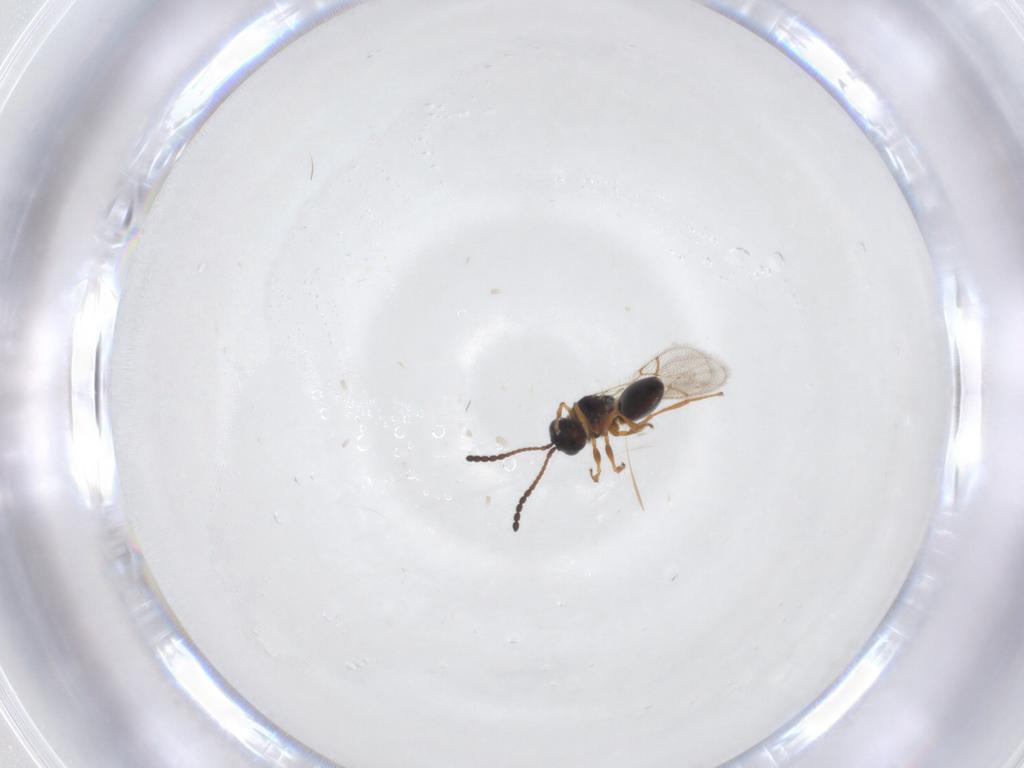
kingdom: Animalia
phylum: Arthropoda
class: Insecta
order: Hymenoptera
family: Figitidae
